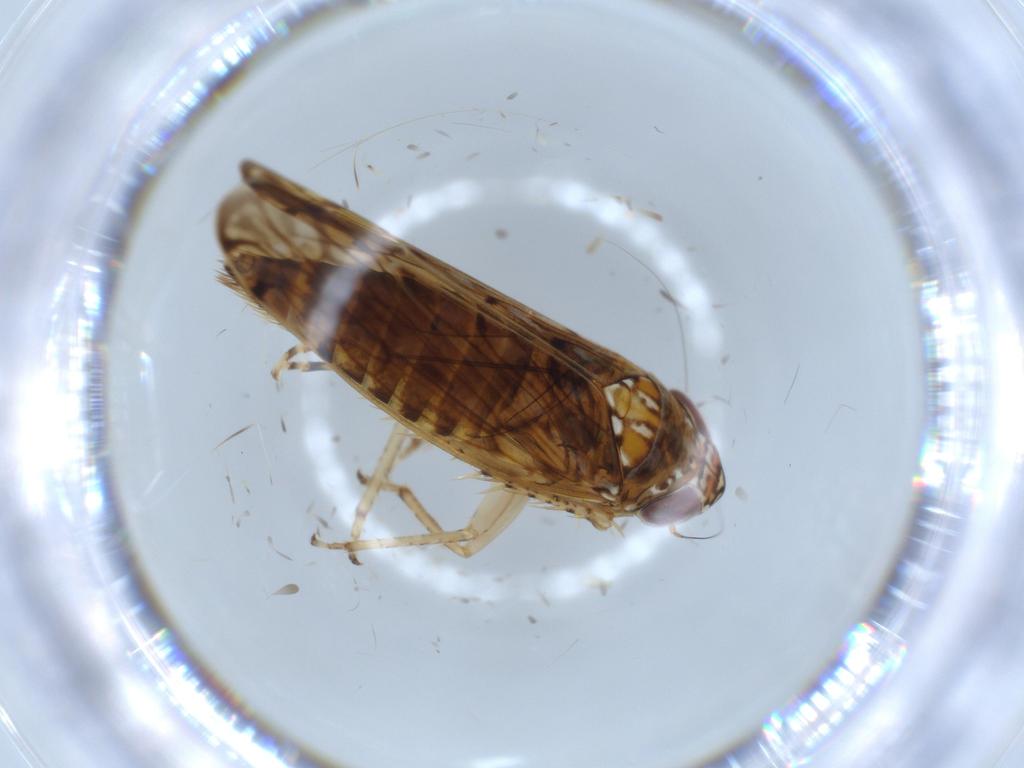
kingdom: Animalia
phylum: Arthropoda
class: Insecta
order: Hemiptera
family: Cicadellidae
